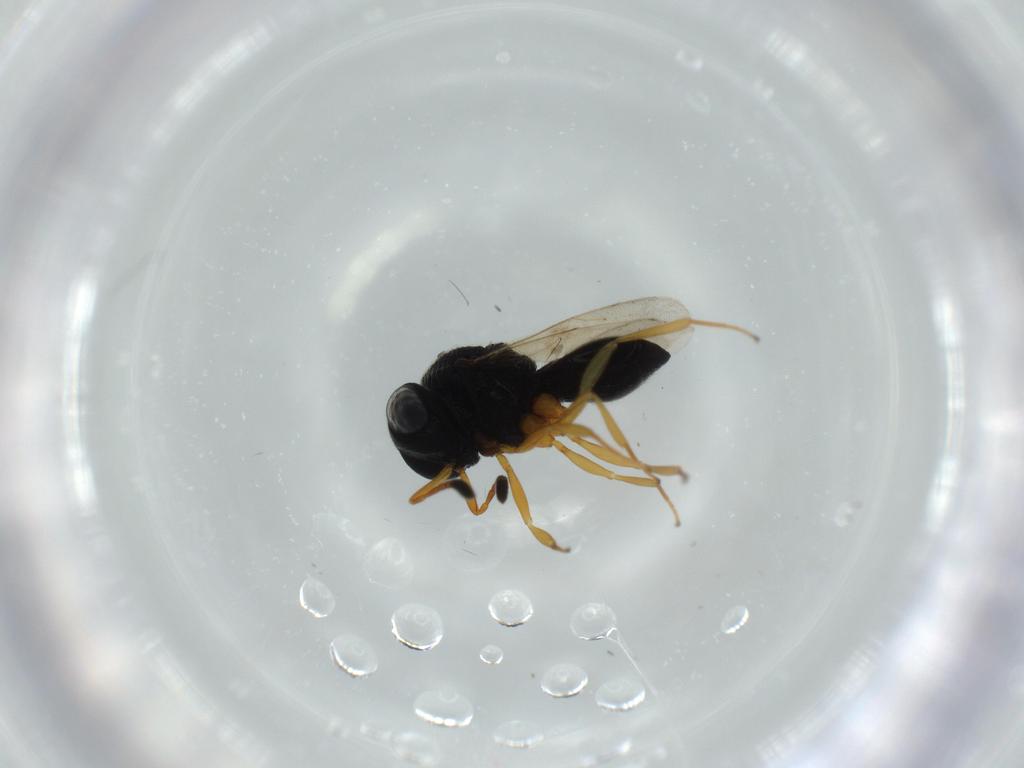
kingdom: Animalia
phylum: Arthropoda
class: Insecta
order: Hymenoptera
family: Scelionidae
